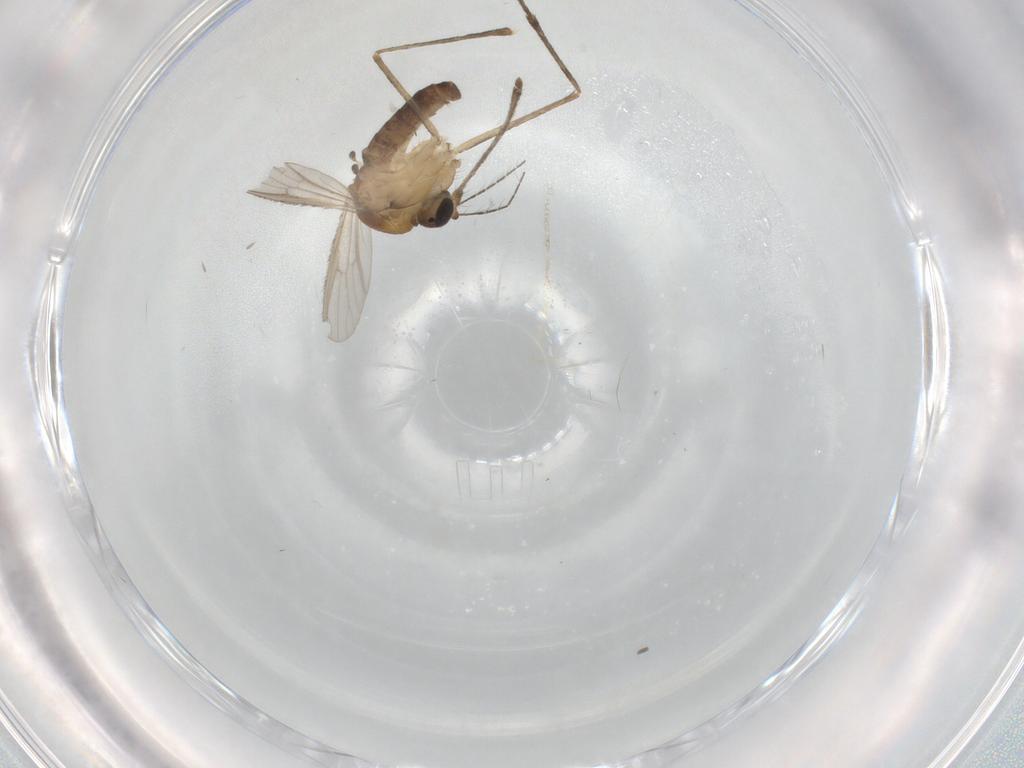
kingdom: Animalia
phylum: Arthropoda
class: Insecta
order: Diptera
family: Culicidae
